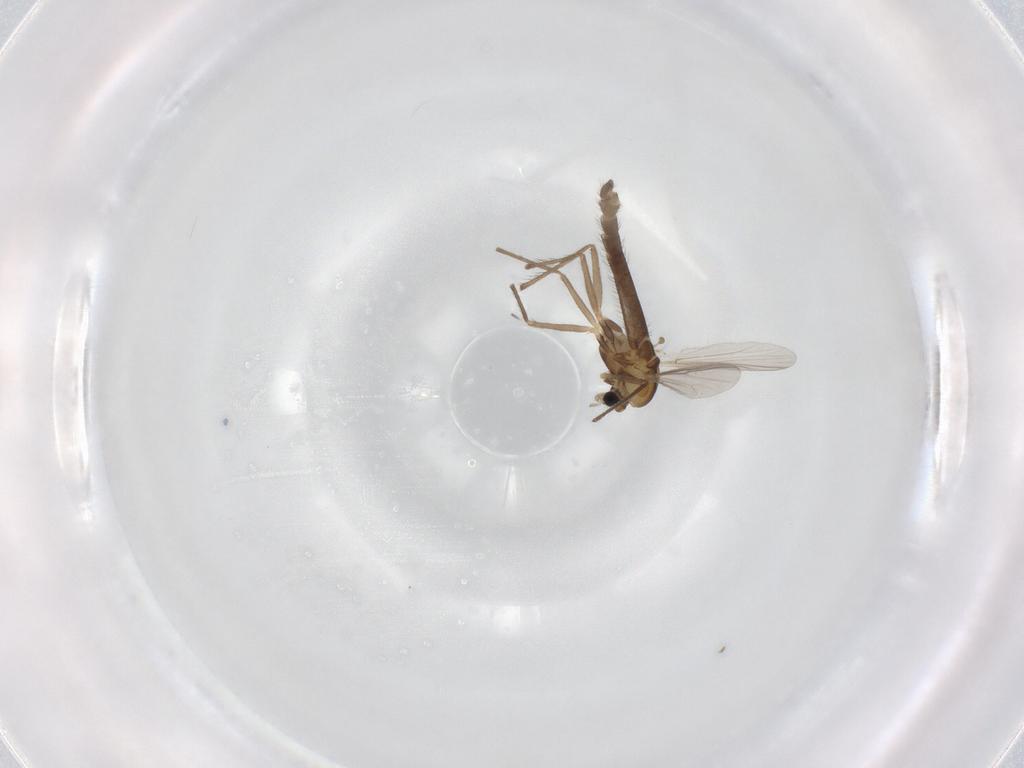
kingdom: Animalia
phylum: Arthropoda
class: Insecta
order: Diptera
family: Chironomidae
